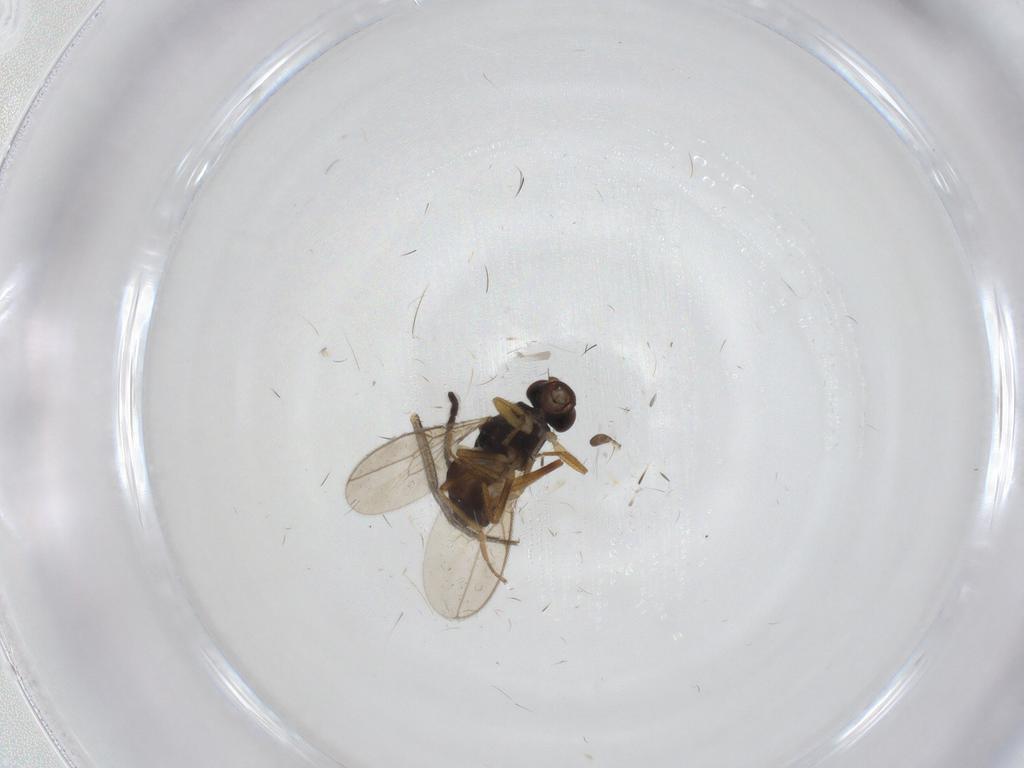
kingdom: Animalia
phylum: Arthropoda
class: Insecta
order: Diptera
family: Sphaeroceridae
